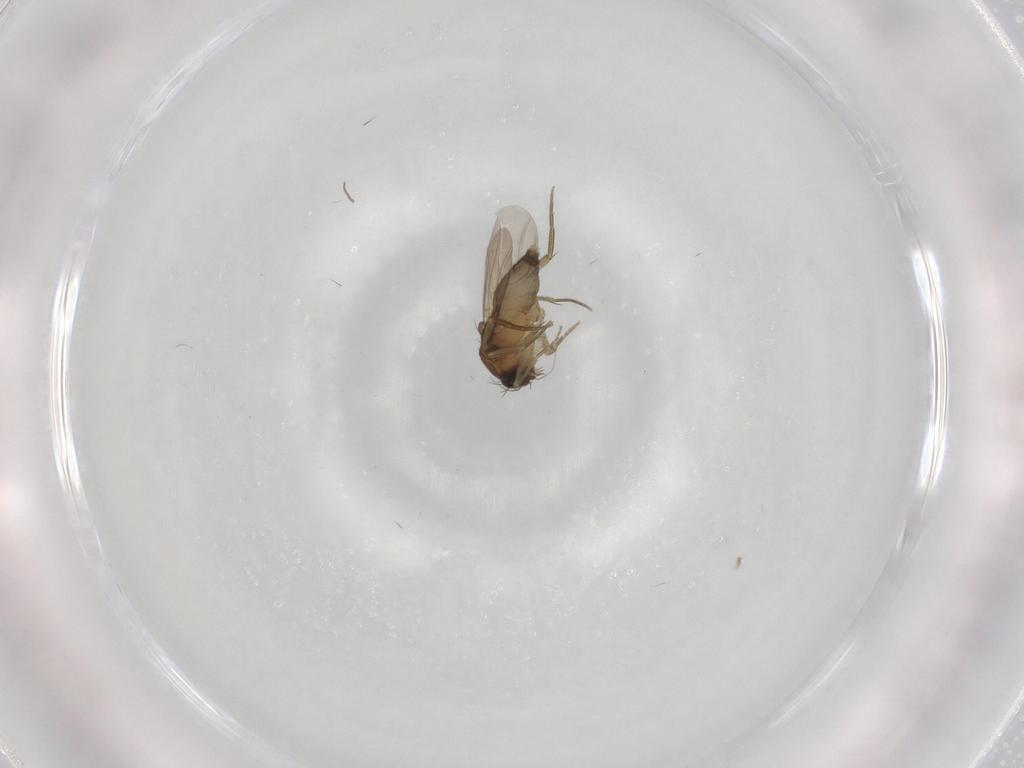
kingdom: Animalia
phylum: Arthropoda
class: Insecta
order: Diptera
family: Phoridae
